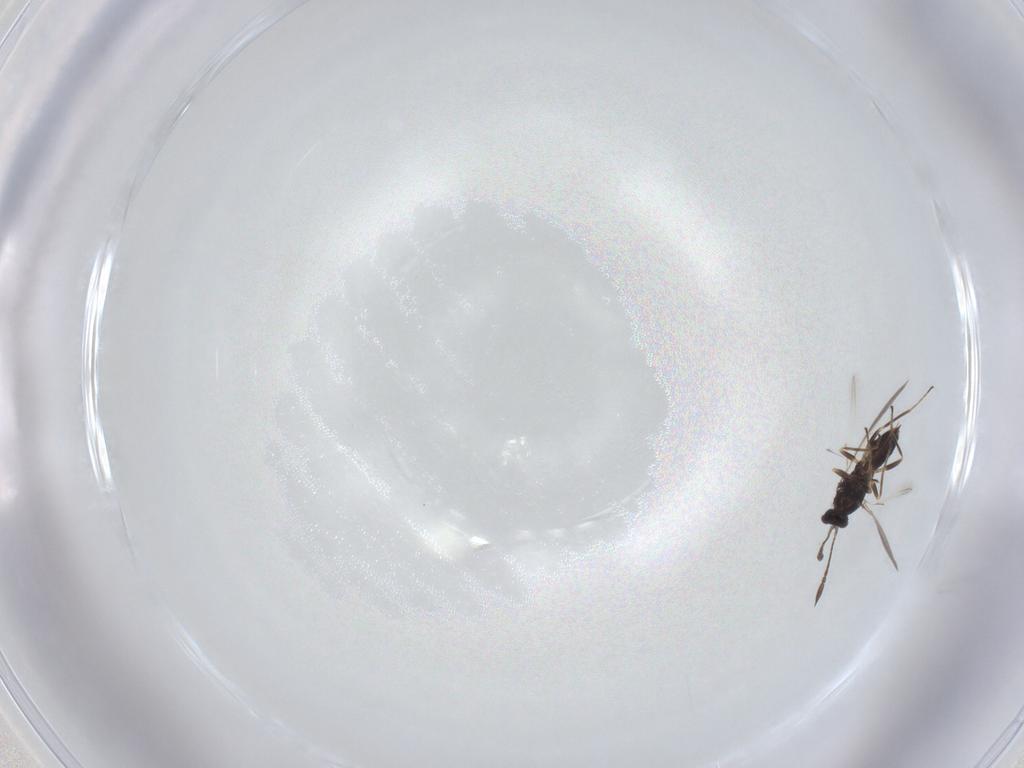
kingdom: Animalia
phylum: Arthropoda
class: Insecta
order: Hymenoptera
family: Mymaridae
